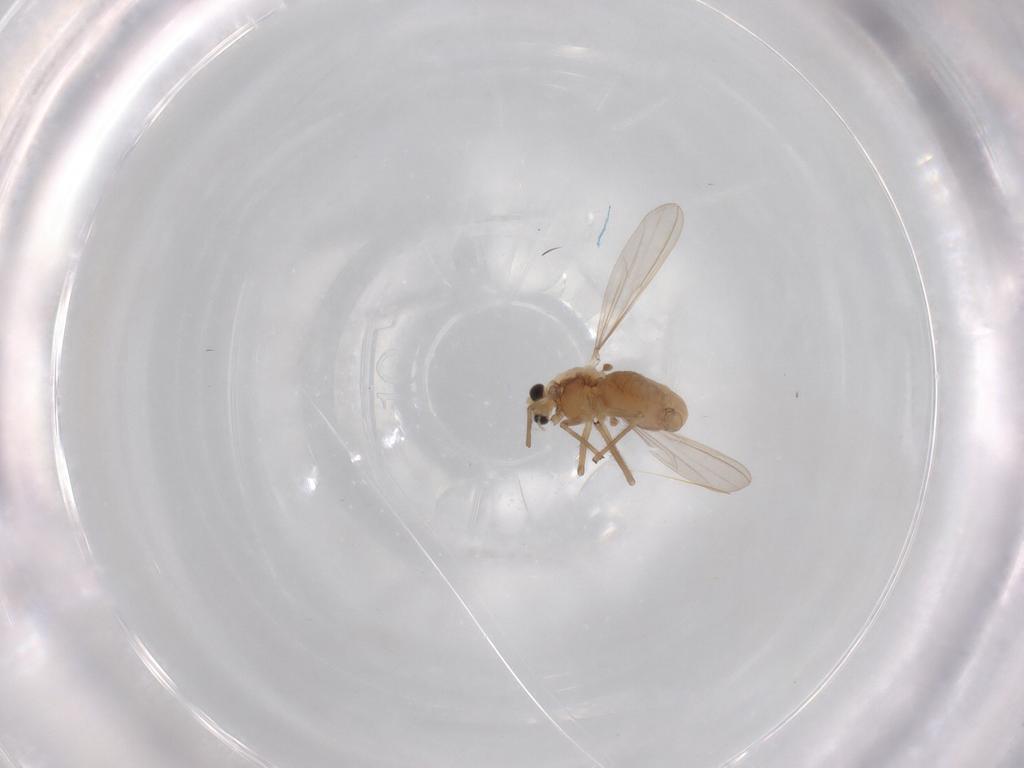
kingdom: Animalia
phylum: Arthropoda
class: Insecta
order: Diptera
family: Chironomidae
